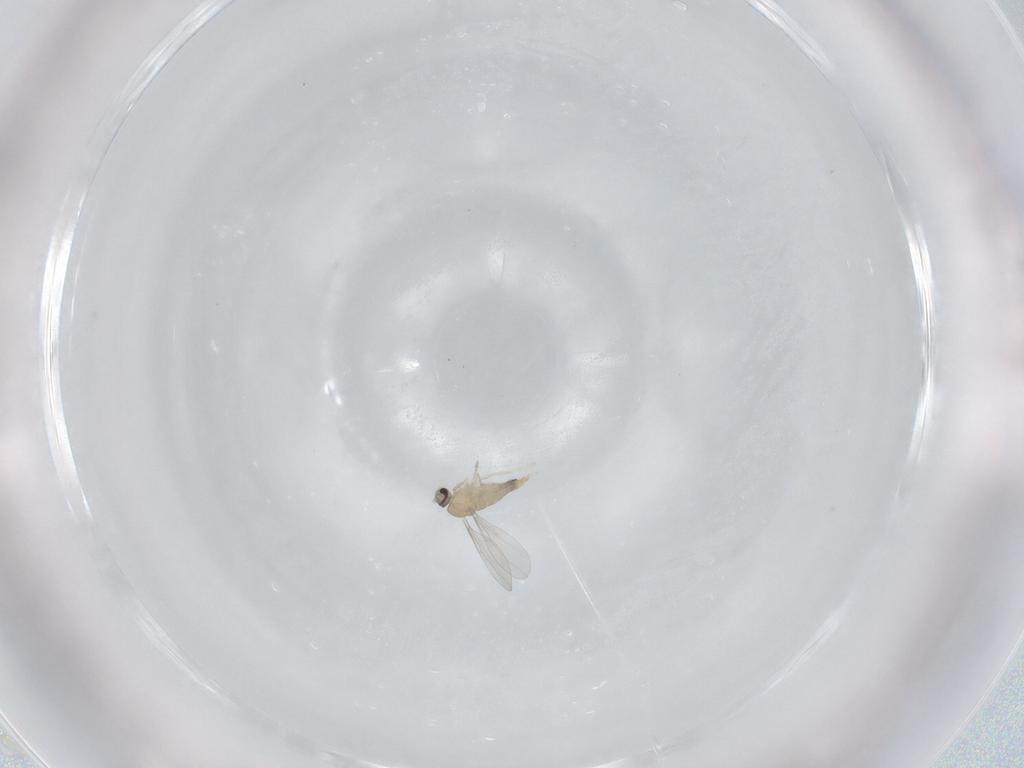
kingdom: Animalia
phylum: Arthropoda
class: Insecta
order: Diptera
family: Cecidomyiidae
